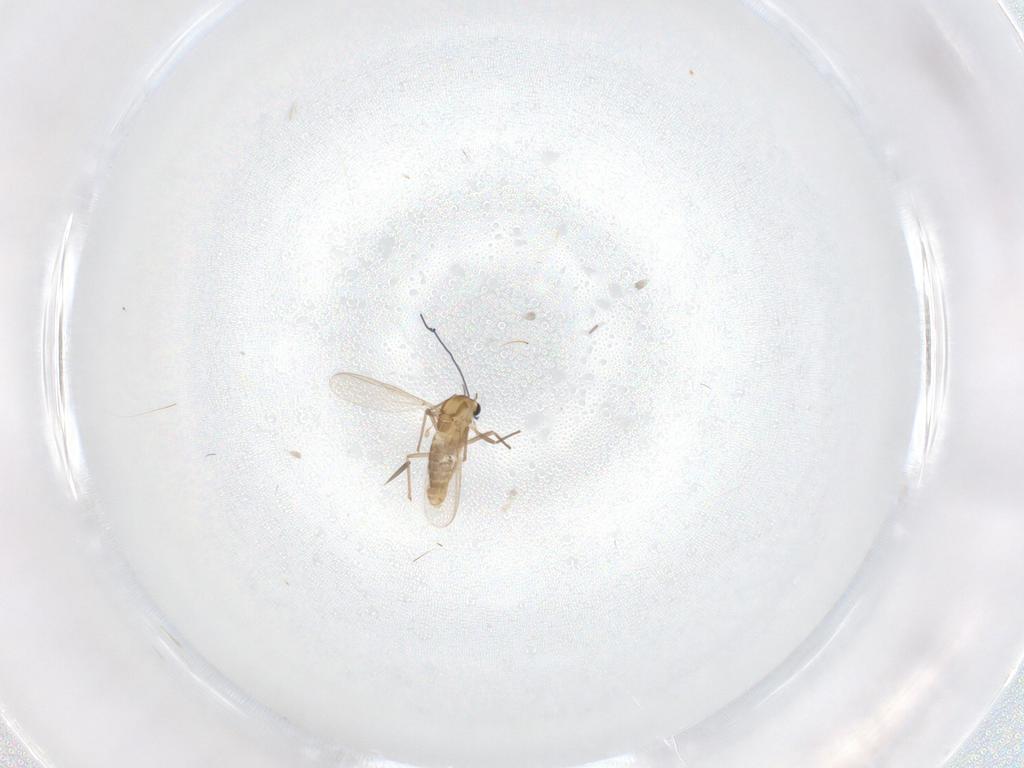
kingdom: Animalia
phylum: Arthropoda
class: Insecta
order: Diptera
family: Chironomidae
